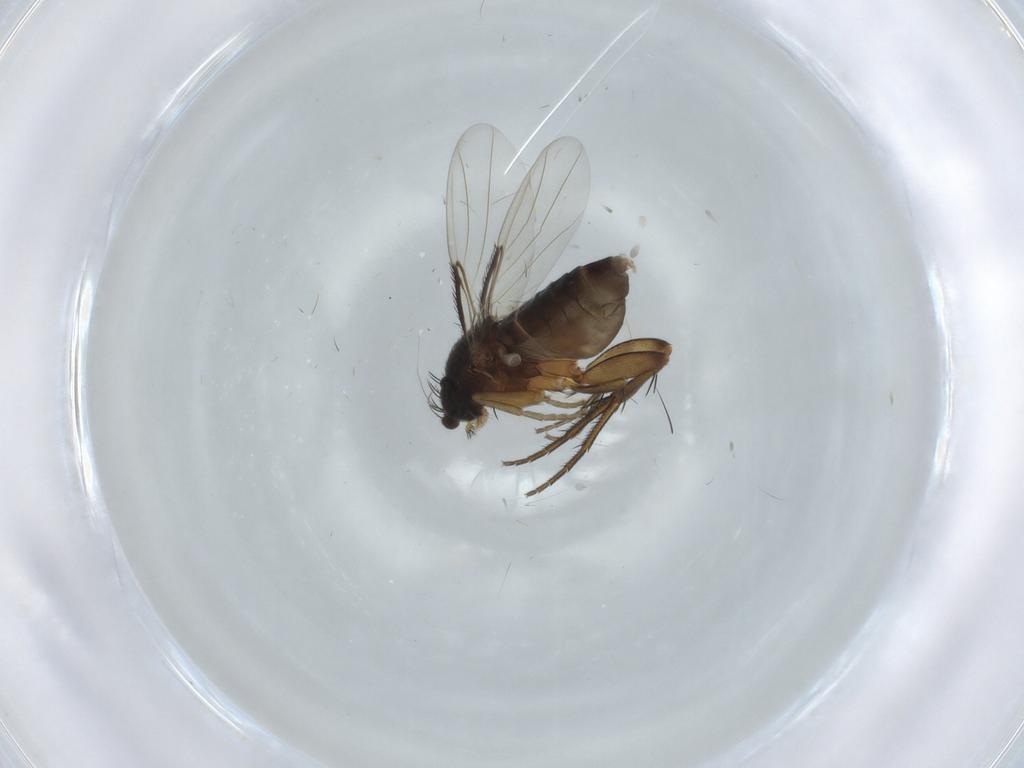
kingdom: Animalia
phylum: Arthropoda
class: Insecta
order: Diptera
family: Phoridae
